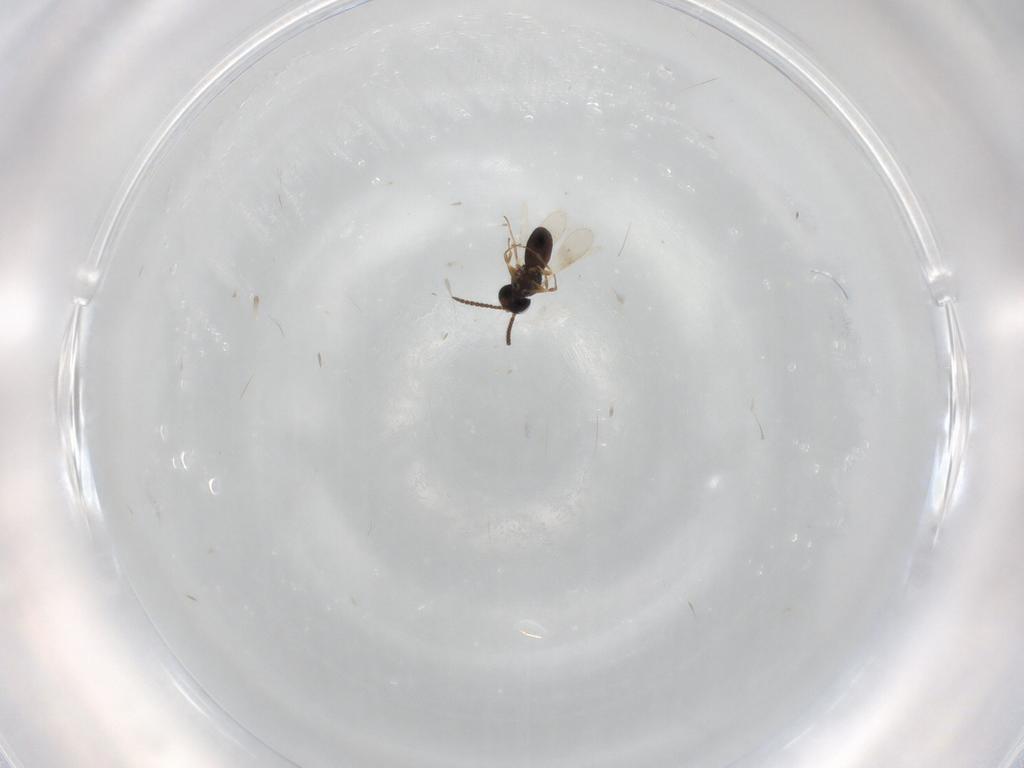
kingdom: Animalia
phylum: Arthropoda
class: Insecta
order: Hymenoptera
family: Scelionidae
